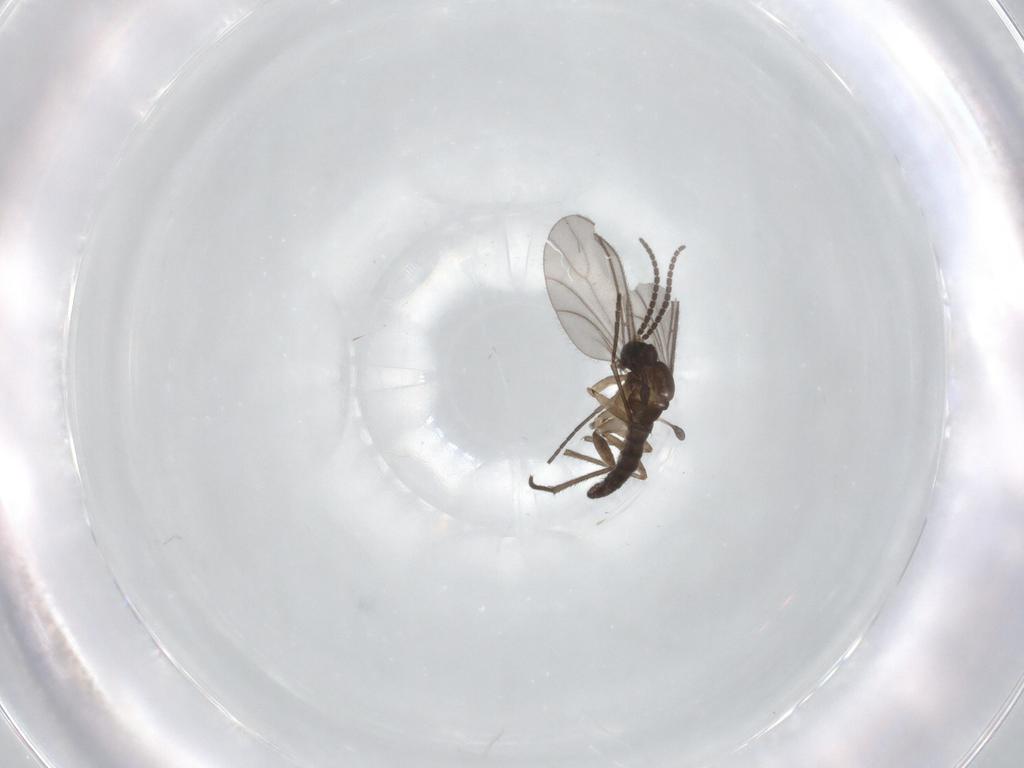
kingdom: Animalia
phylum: Arthropoda
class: Insecta
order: Diptera
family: Sciaridae
